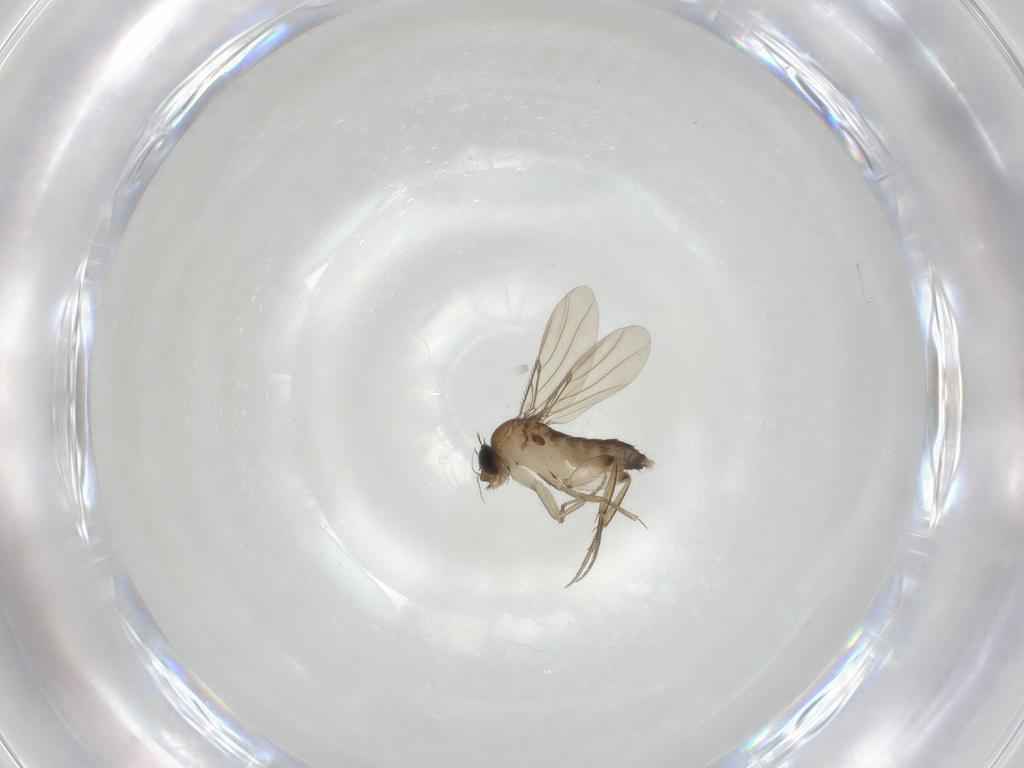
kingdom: Animalia
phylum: Arthropoda
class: Insecta
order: Diptera
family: Phoridae
